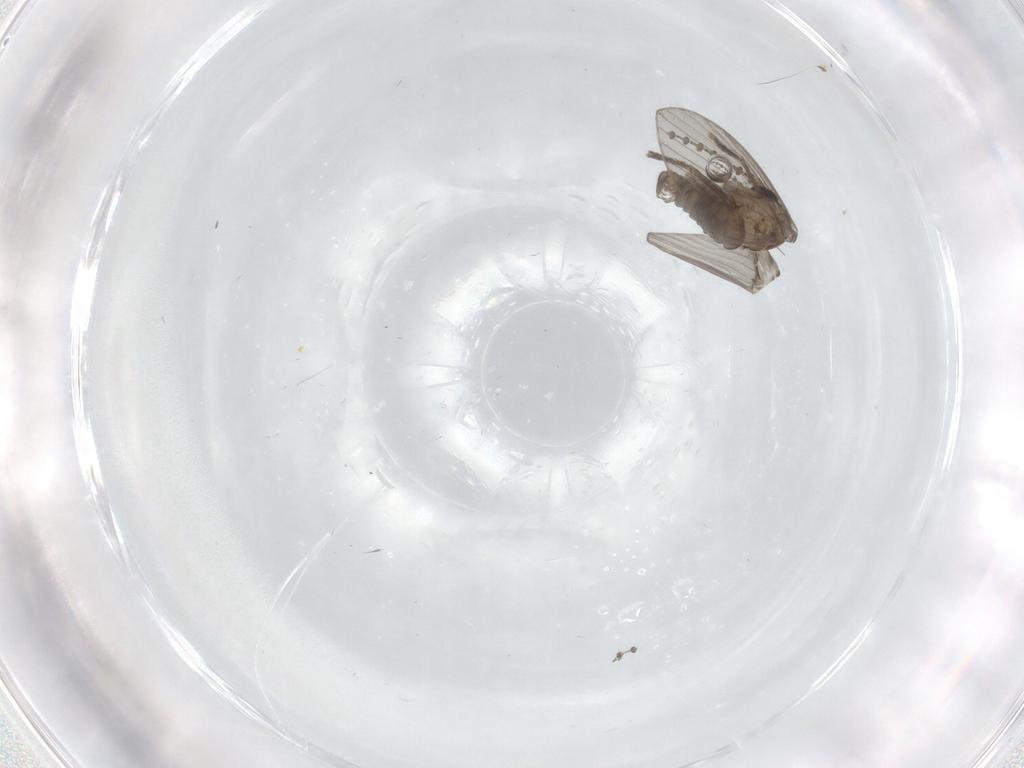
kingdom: Animalia
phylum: Arthropoda
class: Insecta
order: Diptera
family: Psychodidae
